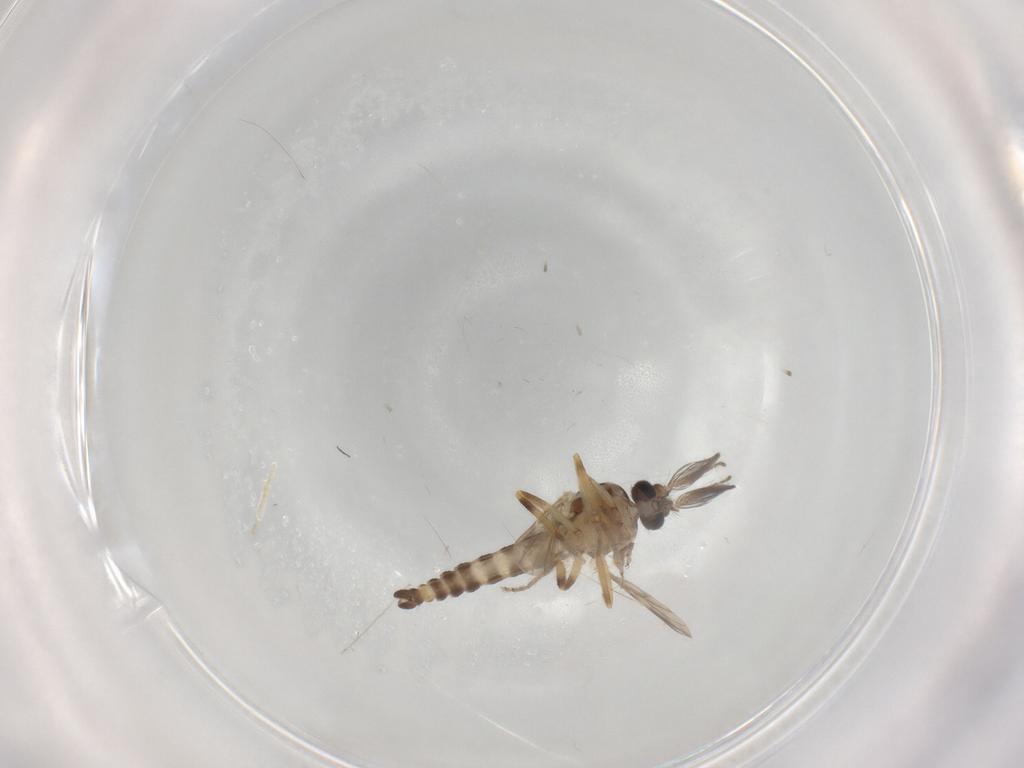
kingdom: Animalia
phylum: Arthropoda
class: Insecta
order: Diptera
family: Ceratopogonidae
